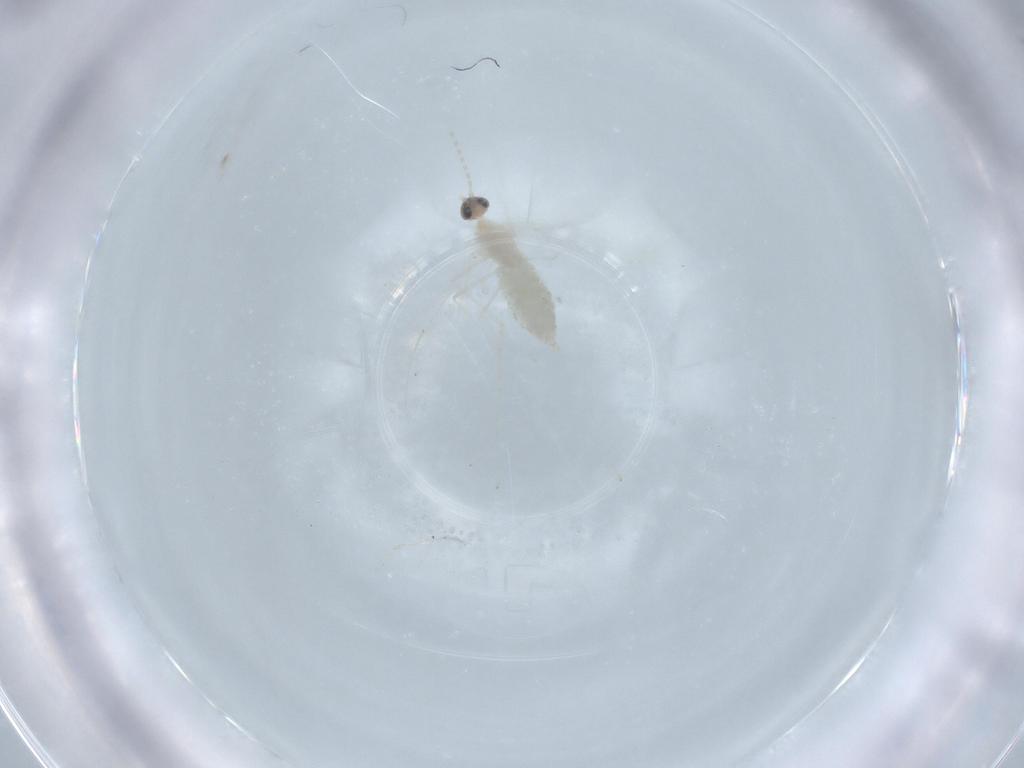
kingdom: Animalia
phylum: Arthropoda
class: Insecta
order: Diptera
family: Cecidomyiidae
